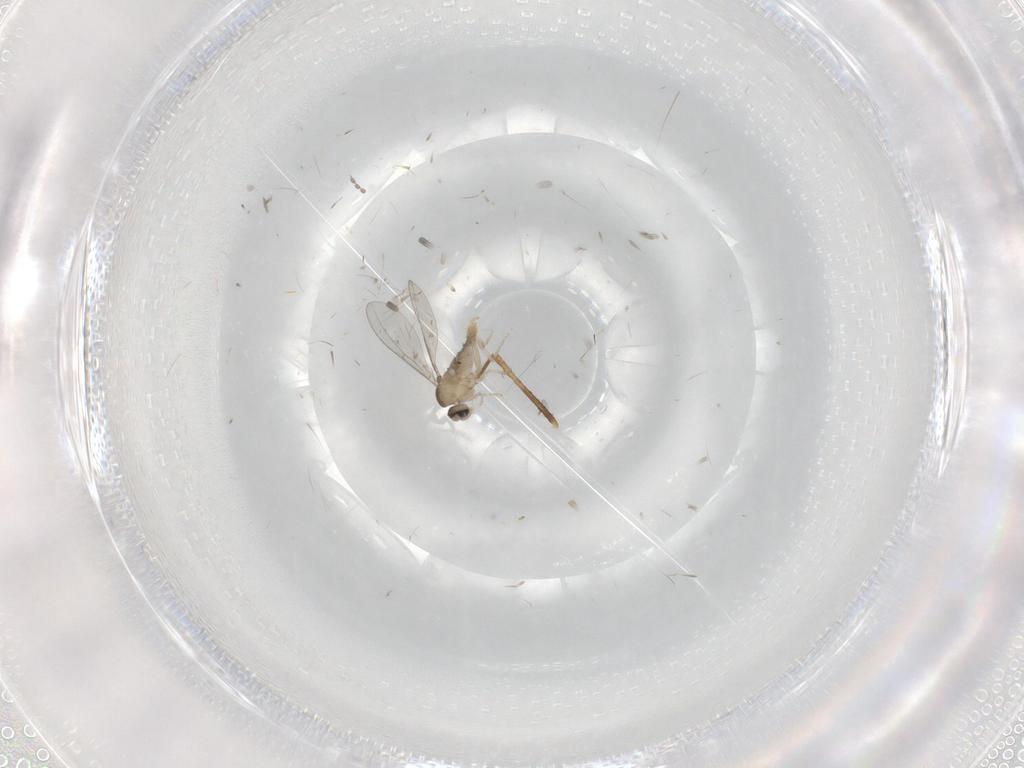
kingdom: Animalia
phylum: Arthropoda
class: Insecta
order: Diptera
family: Cecidomyiidae
